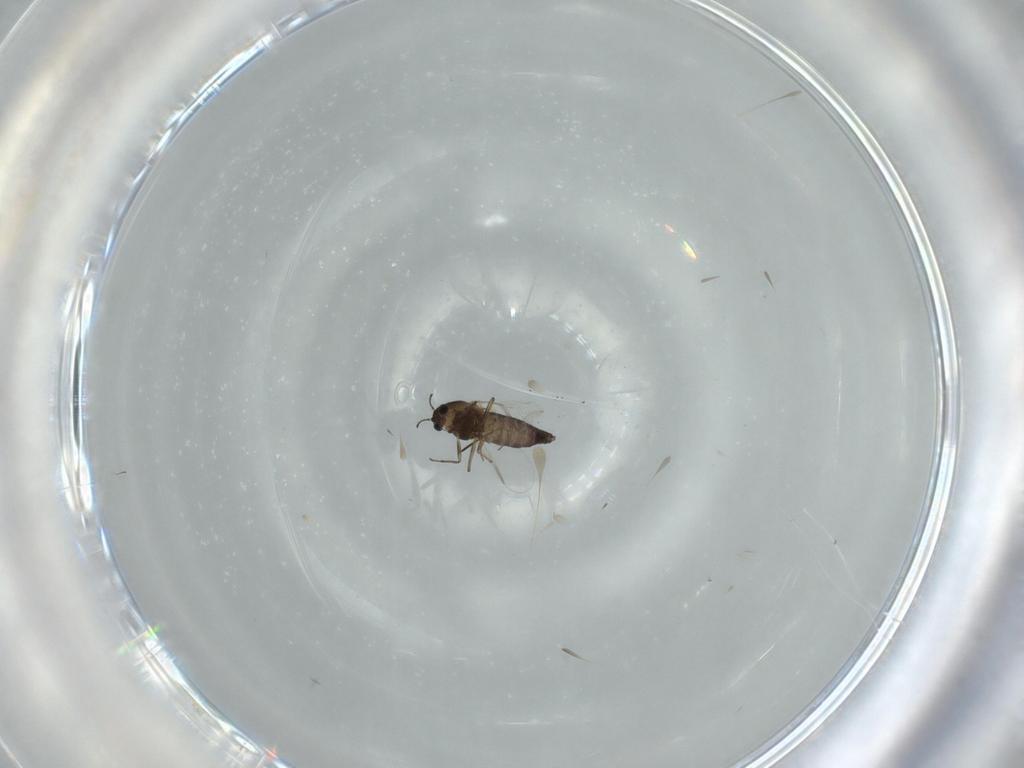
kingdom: Animalia
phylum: Arthropoda
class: Insecta
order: Diptera
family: Chironomidae
